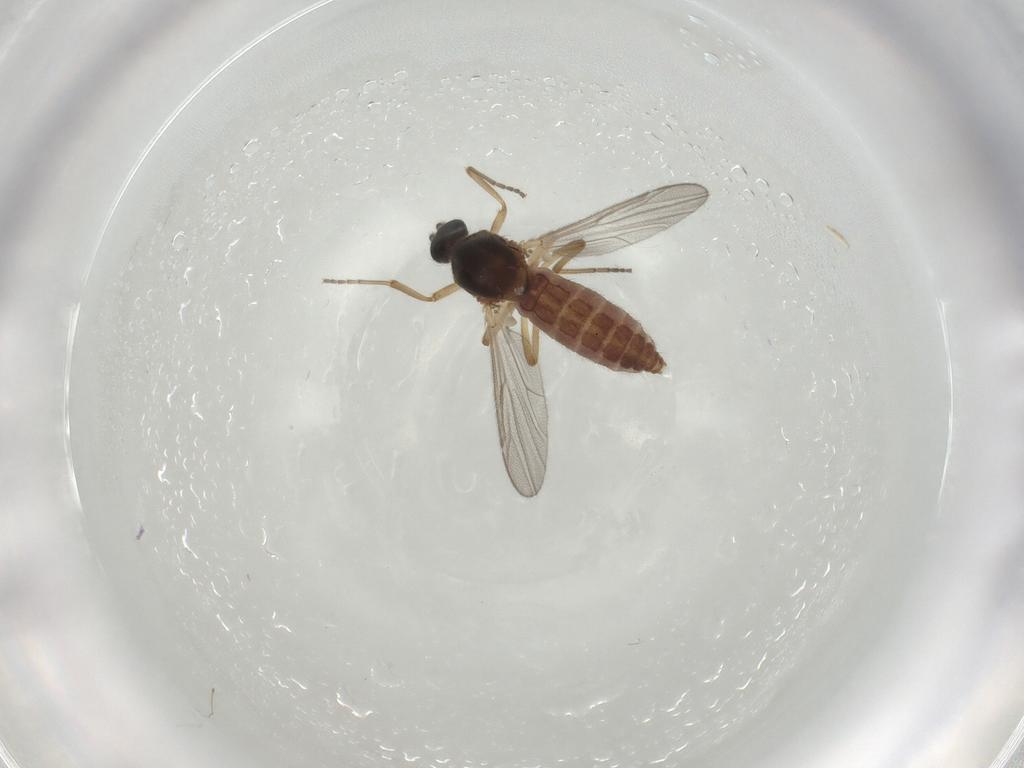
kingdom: Animalia
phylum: Arthropoda
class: Insecta
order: Diptera
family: Ceratopogonidae
